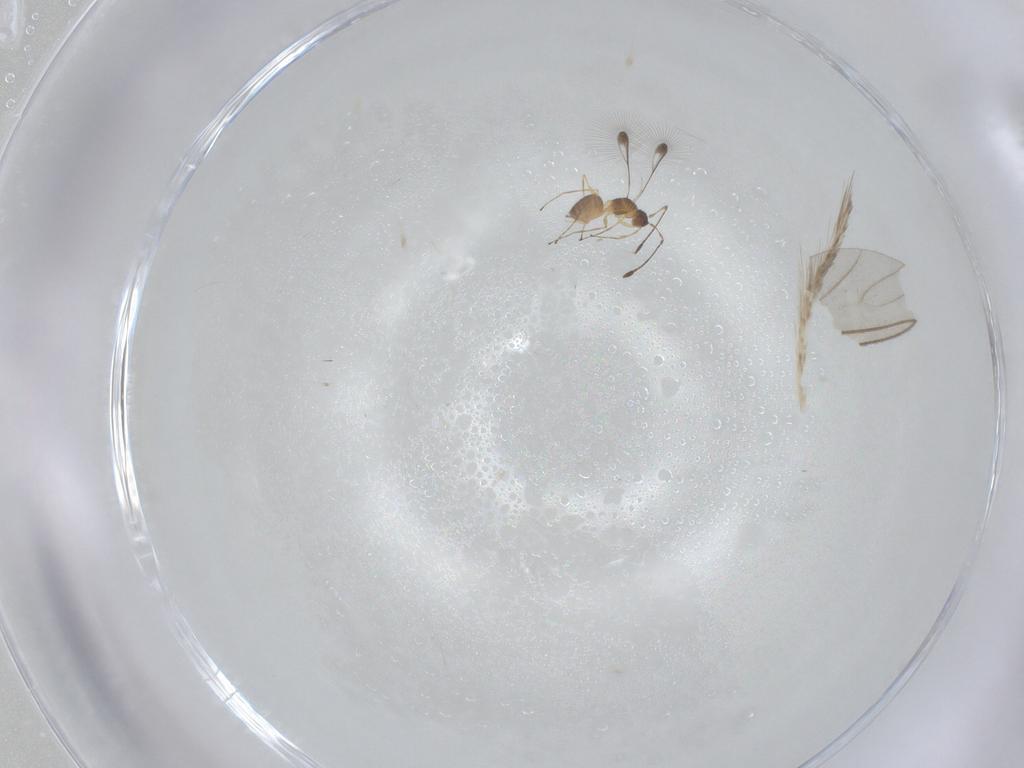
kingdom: Animalia
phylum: Arthropoda
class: Insecta
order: Hymenoptera
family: Mymaridae
